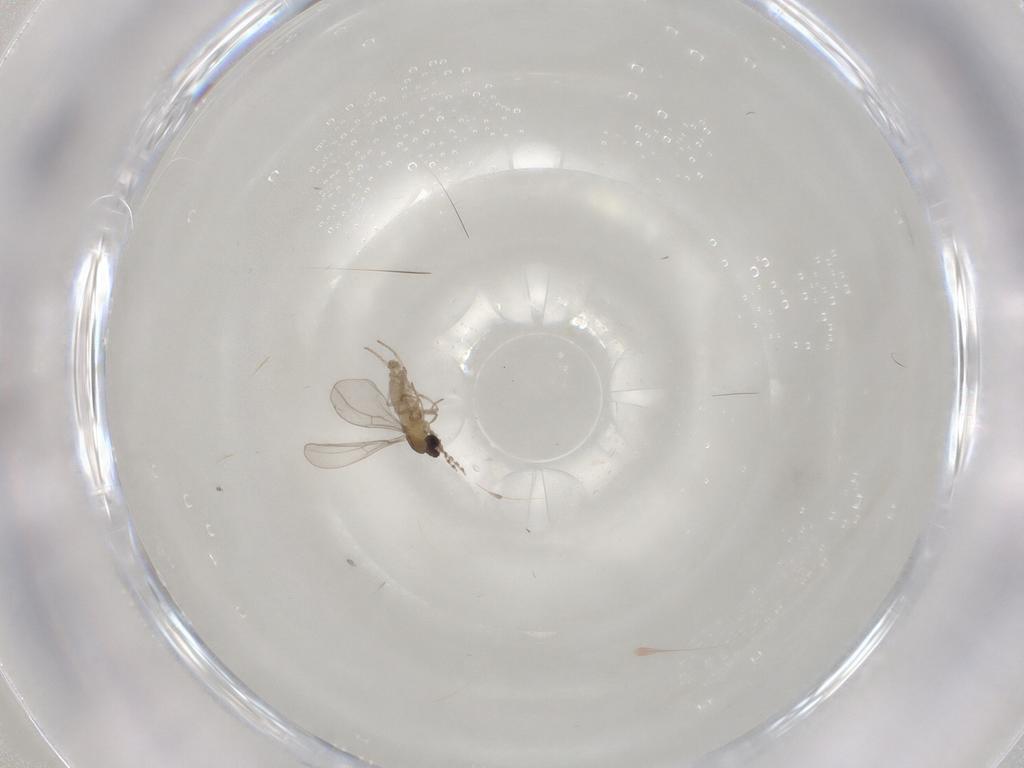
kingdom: Animalia
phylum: Arthropoda
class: Insecta
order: Diptera
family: Cecidomyiidae
